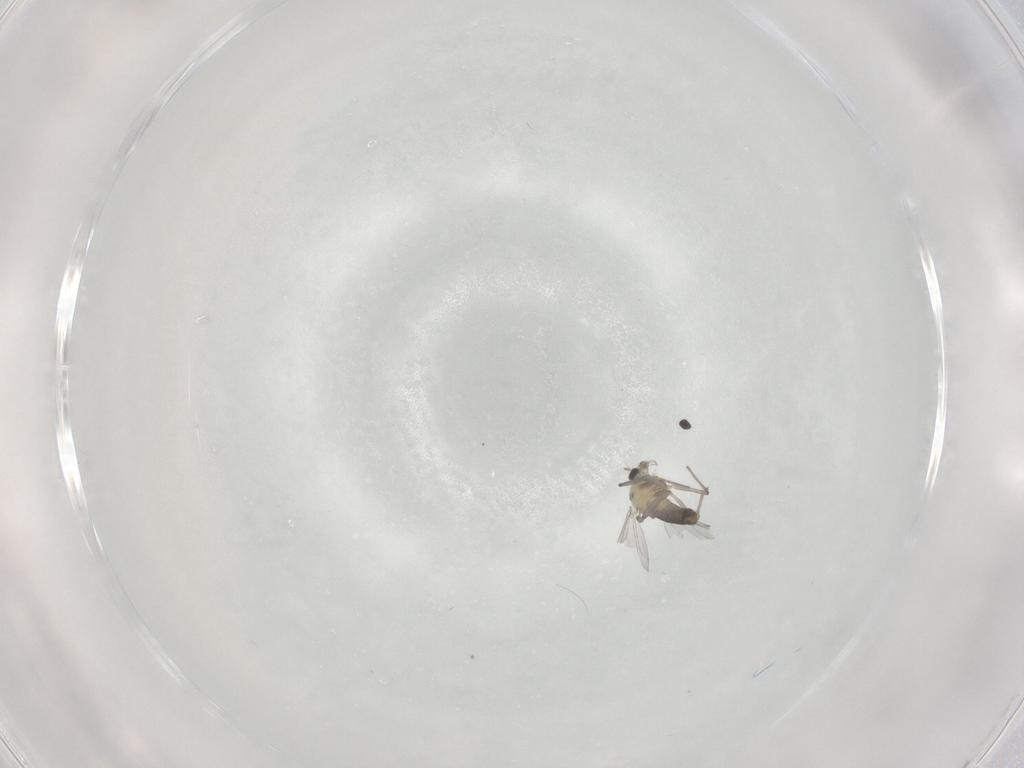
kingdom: Animalia
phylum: Arthropoda
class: Insecta
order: Diptera
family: Chironomidae
